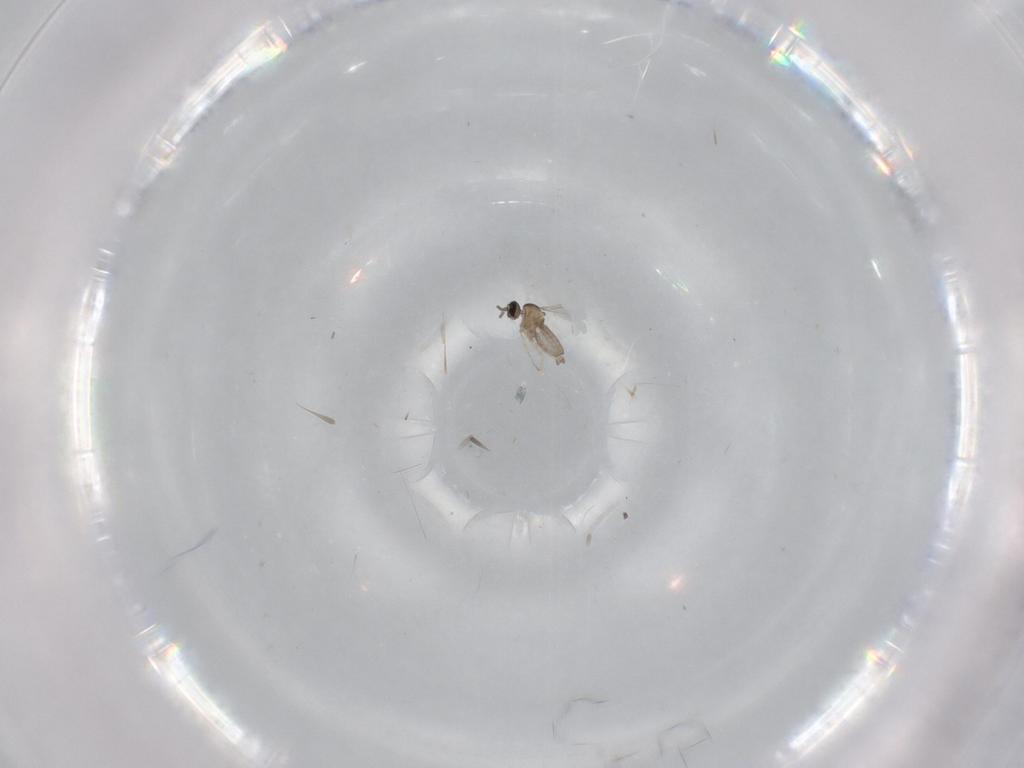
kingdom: Animalia
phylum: Arthropoda
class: Insecta
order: Diptera
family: Cecidomyiidae
